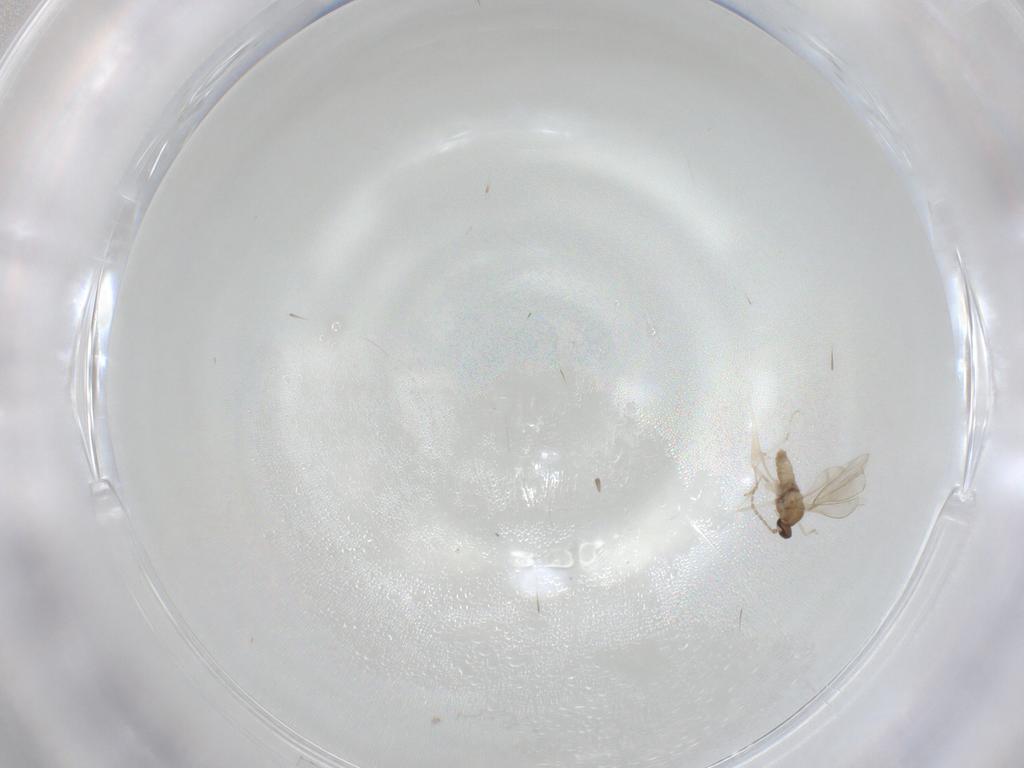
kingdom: Animalia
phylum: Arthropoda
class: Insecta
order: Diptera
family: Chironomidae
